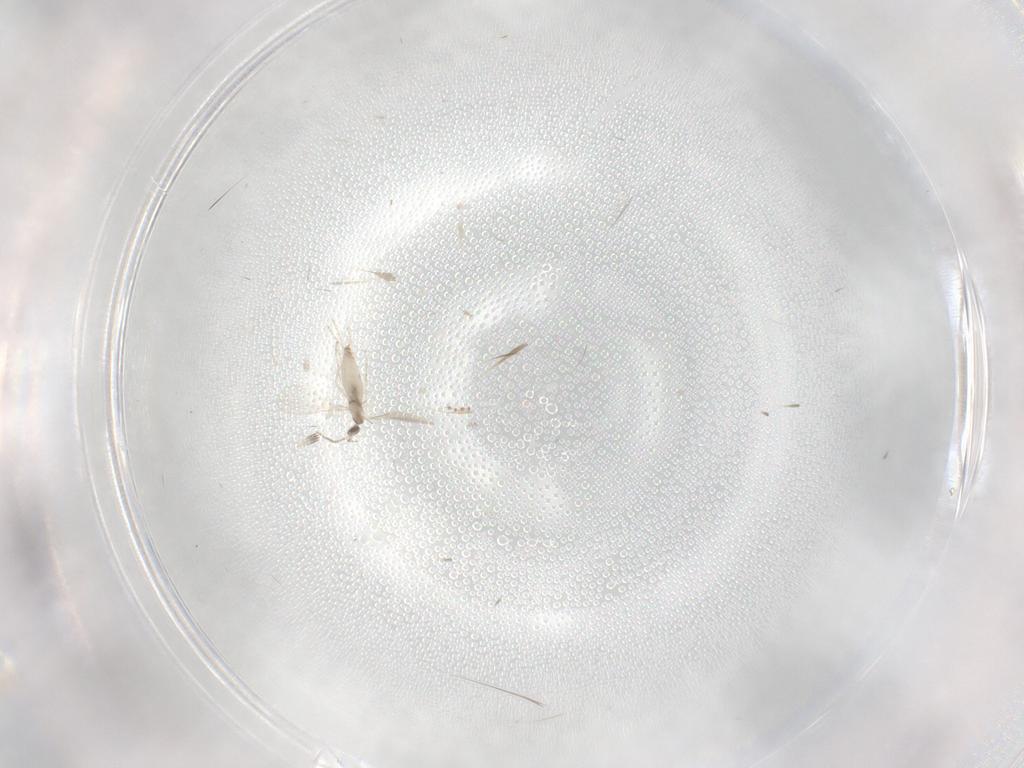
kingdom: Animalia
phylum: Arthropoda
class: Insecta
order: Diptera
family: Cecidomyiidae
